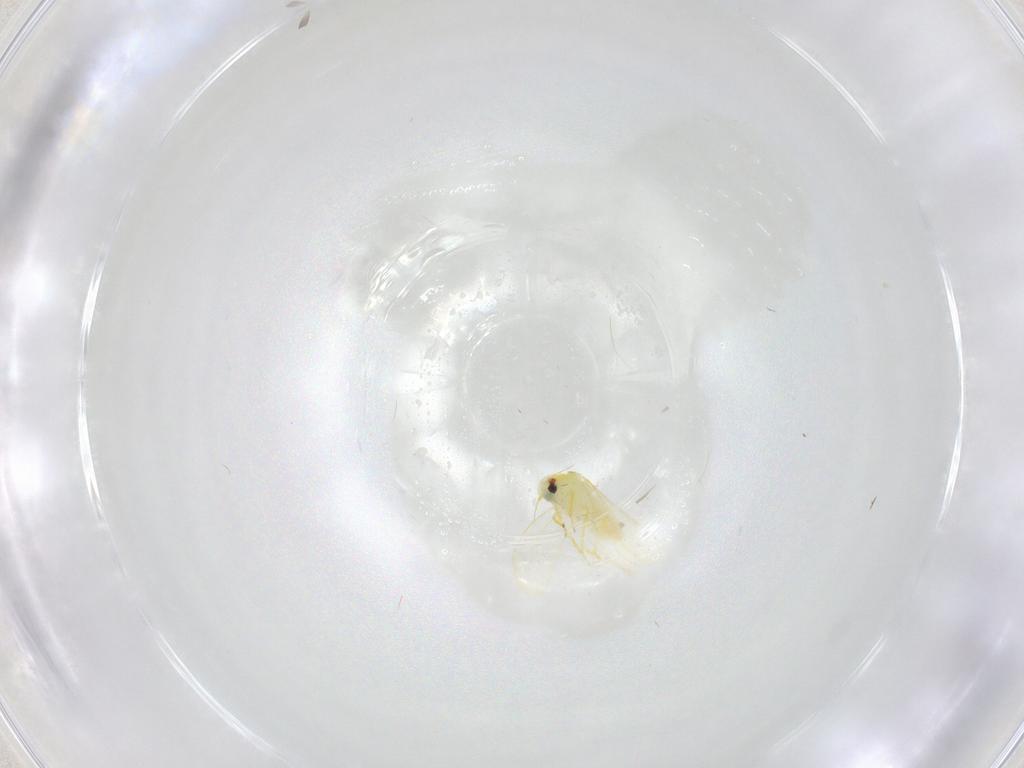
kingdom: Animalia
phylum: Arthropoda
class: Insecta
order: Hemiptera
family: Aleyrodidae
